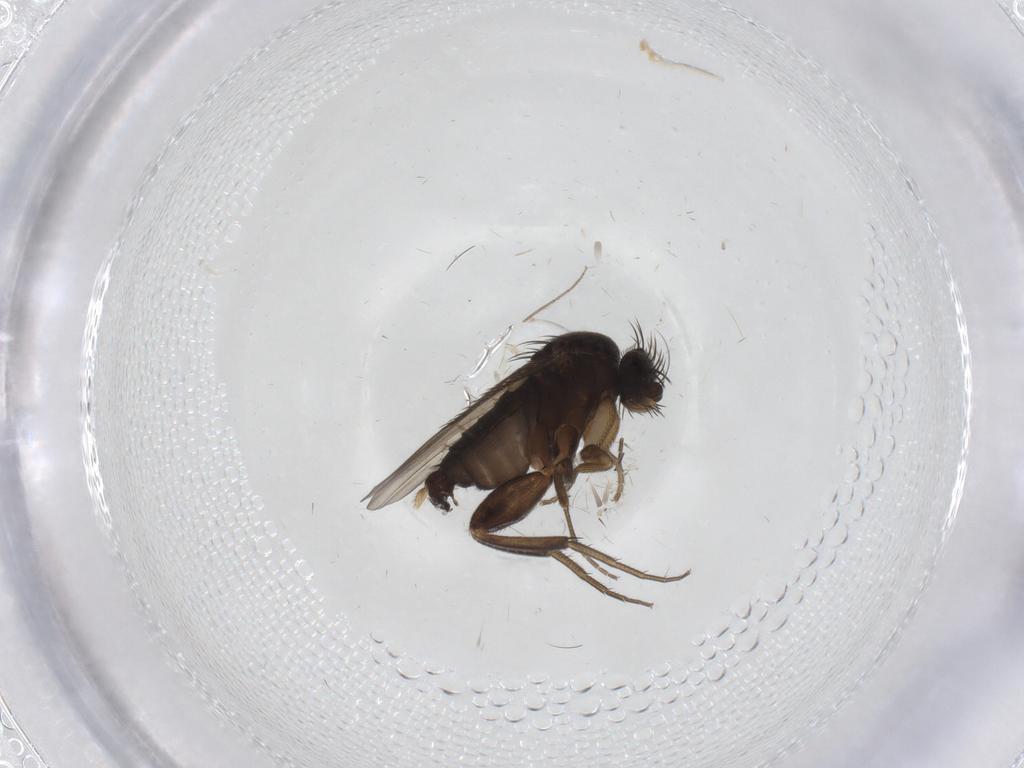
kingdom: Animalia
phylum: Arthropoda
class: Insecta
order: Diptera
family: Phoridae
